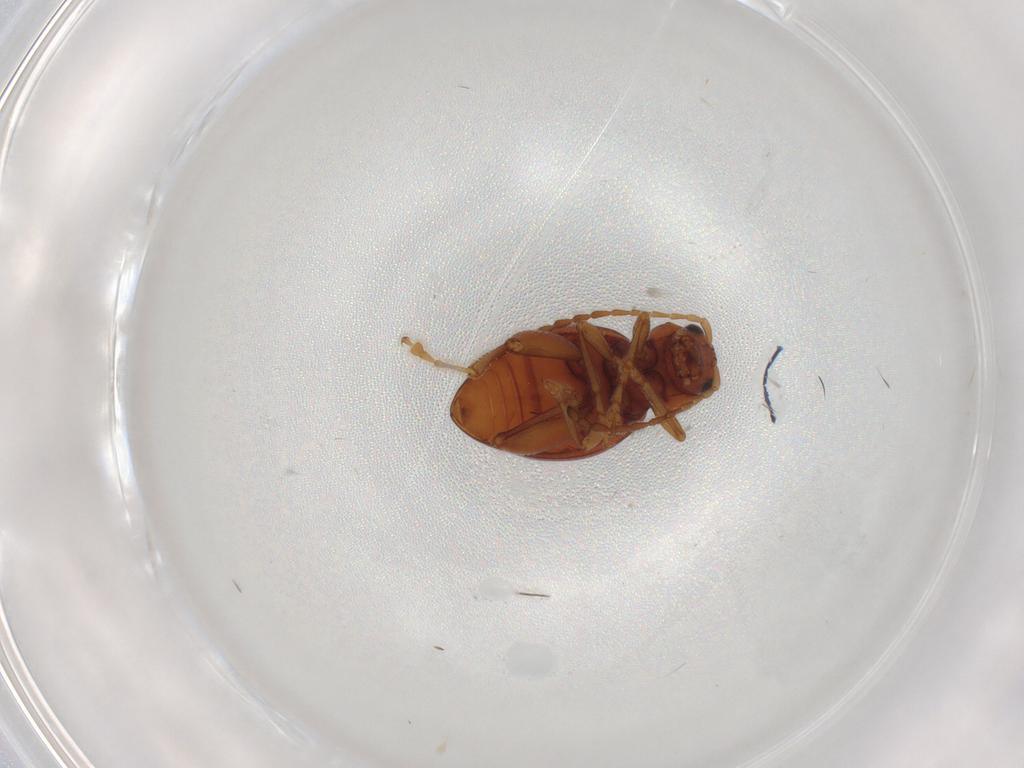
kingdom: Animalia
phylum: Arthropoda
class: Insecta
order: Coleoptera
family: Chrysomelidae
